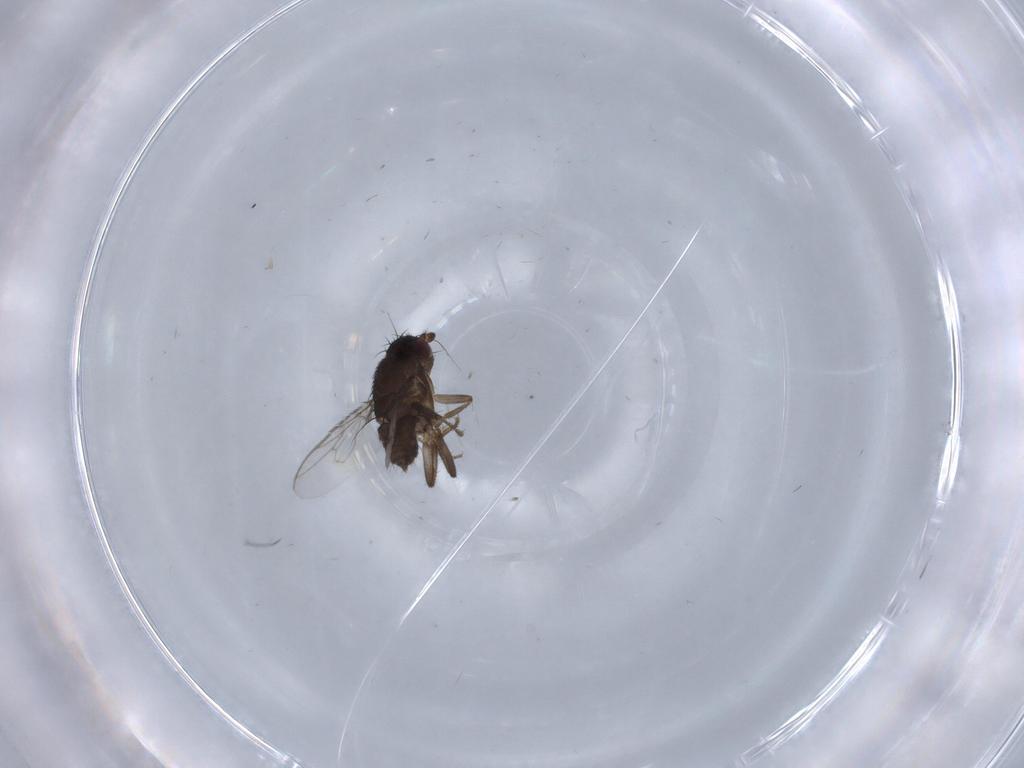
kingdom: Animalia
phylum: Arthropoda
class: Insecta
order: Diptera
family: Sphaeroceridae
